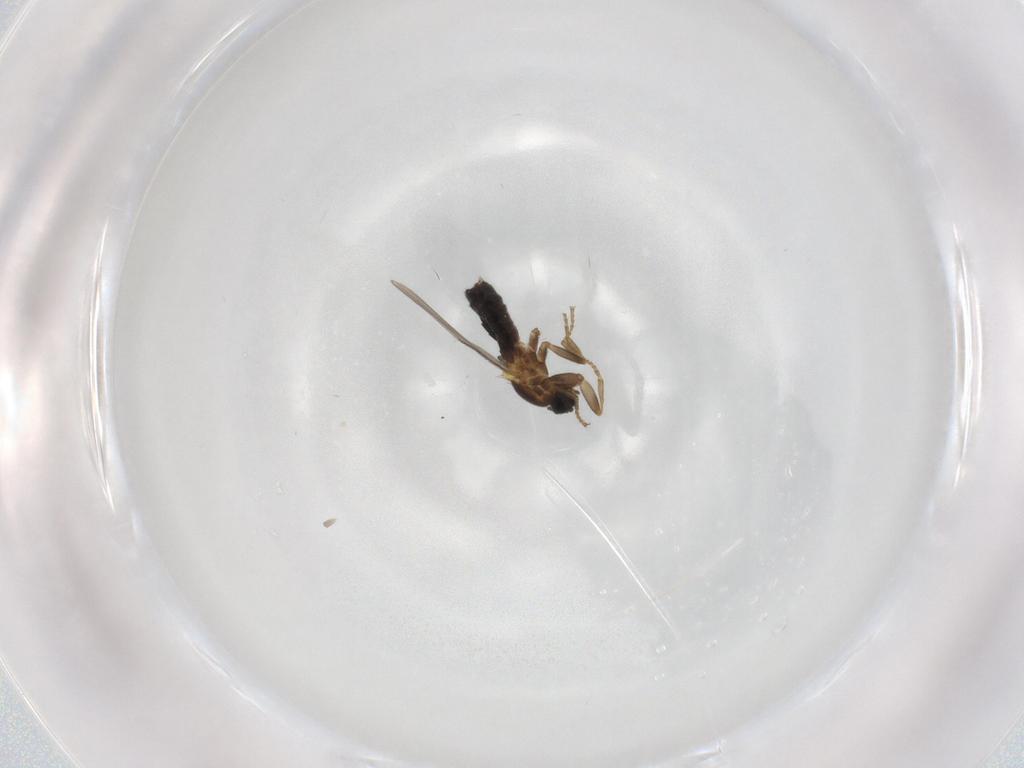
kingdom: Animalia
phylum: Arthropoda
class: Insecta
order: Diptera
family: Scatopsidae
